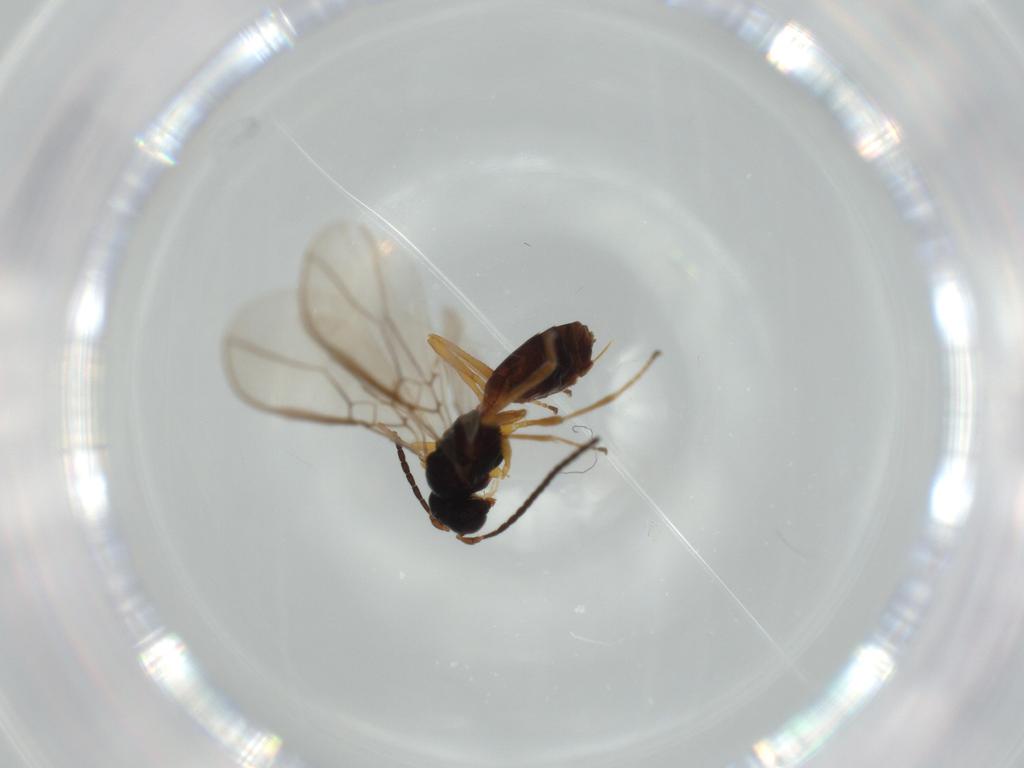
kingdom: Animalia
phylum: Arthropoda
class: Insecta
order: Hymenoptera
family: Braconidae
